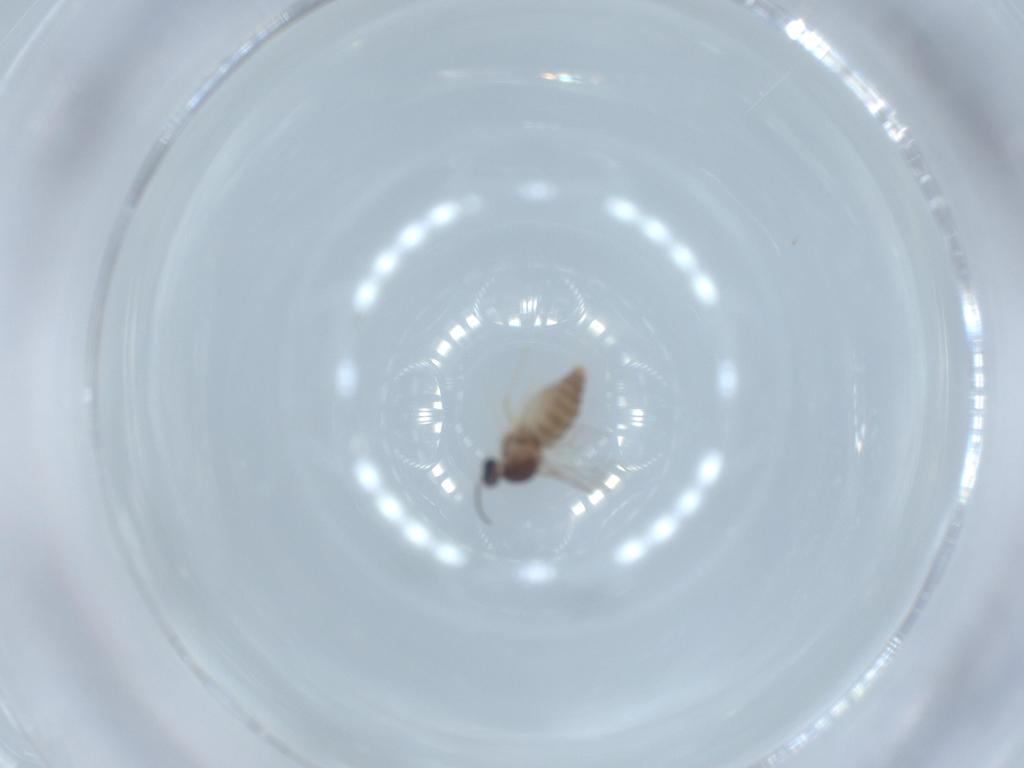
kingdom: Animalia
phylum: Arthropoda
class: Insecta
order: Diptera
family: Cecidomyiidae
